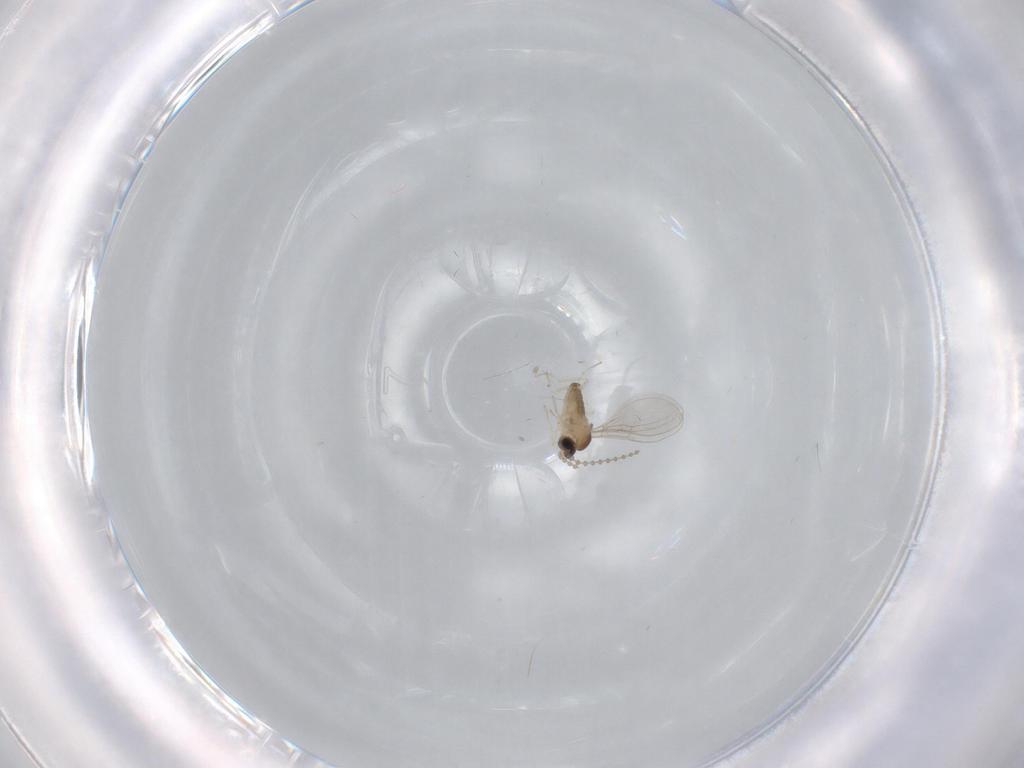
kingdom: Animalia
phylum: Arthropoda
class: Insecta
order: Diptera
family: Cecidomyiidae
